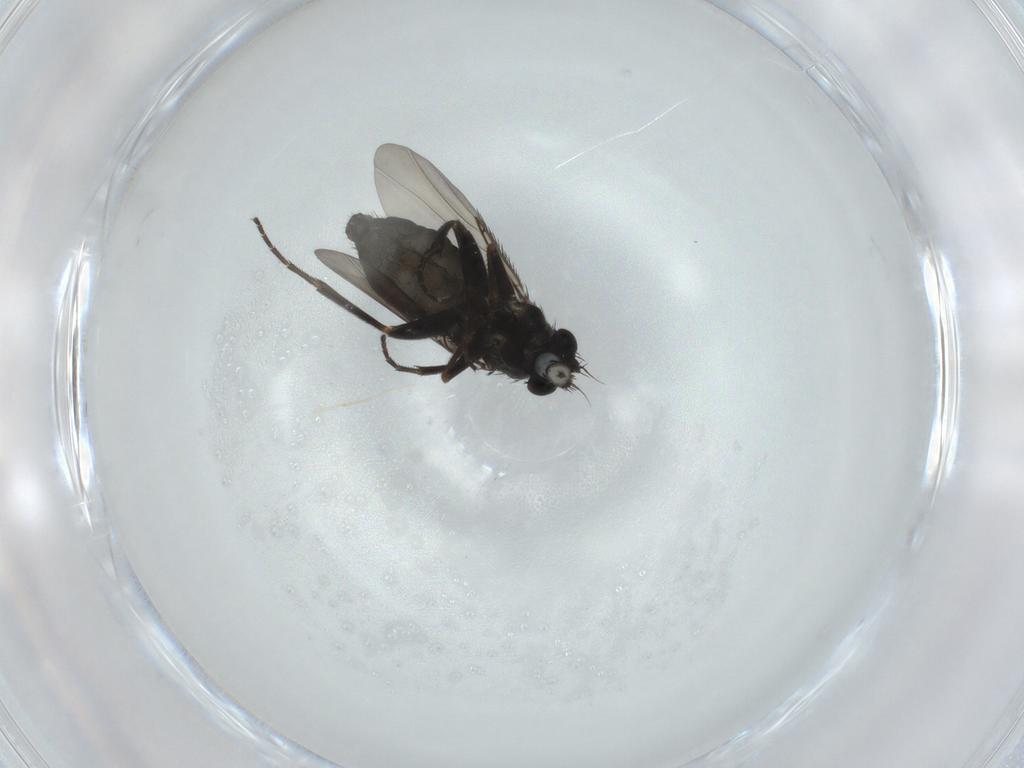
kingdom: Animalia
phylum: Arthropoda
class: Insecta
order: Diptera
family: Phoridae
